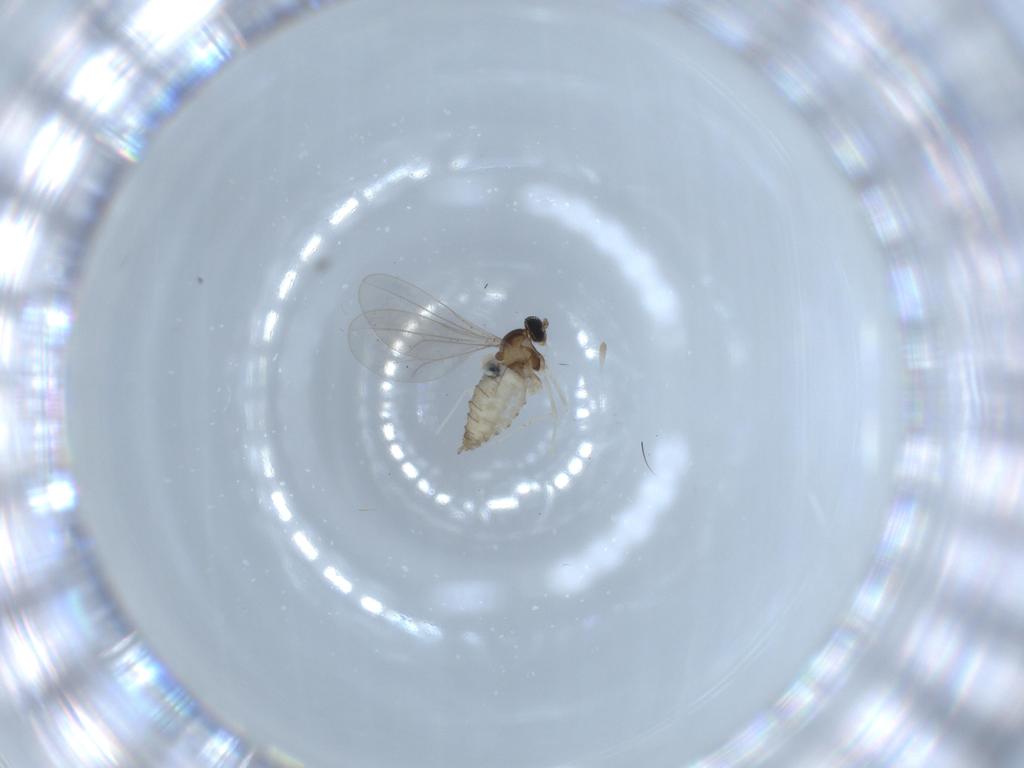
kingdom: Animalia
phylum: Arthropoda
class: Insecta
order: Diptera
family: Cecidomyiidae
